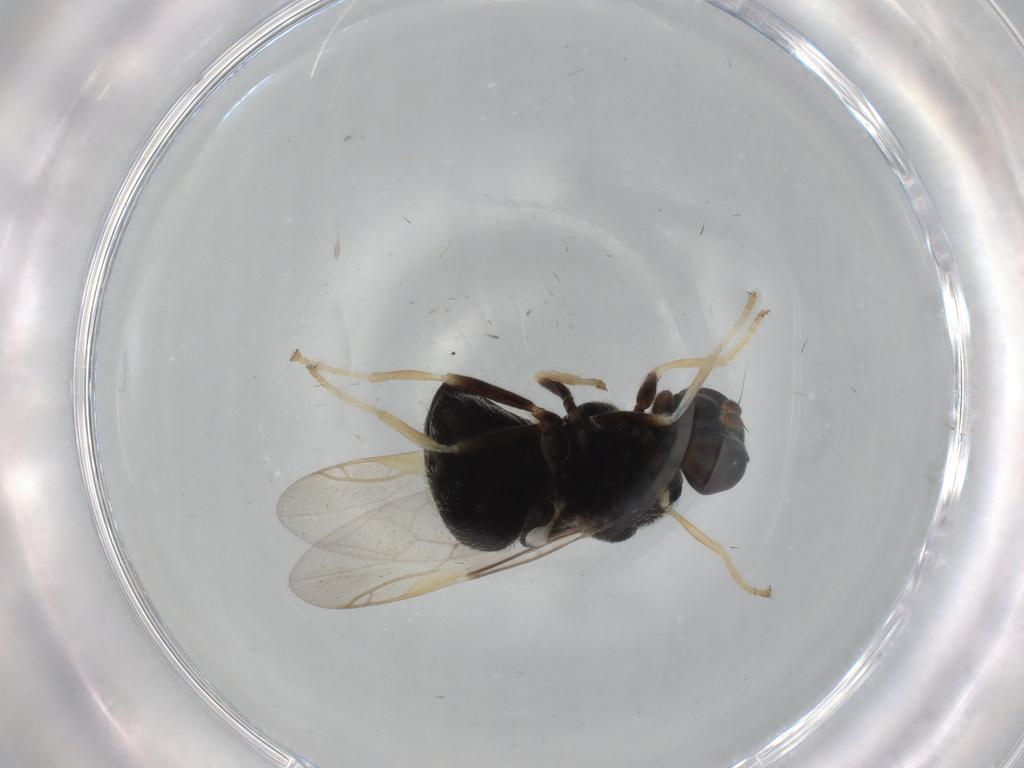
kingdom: Animalia
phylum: Arthropoda
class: Insecta
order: Diptera
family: Stratiomyidae
